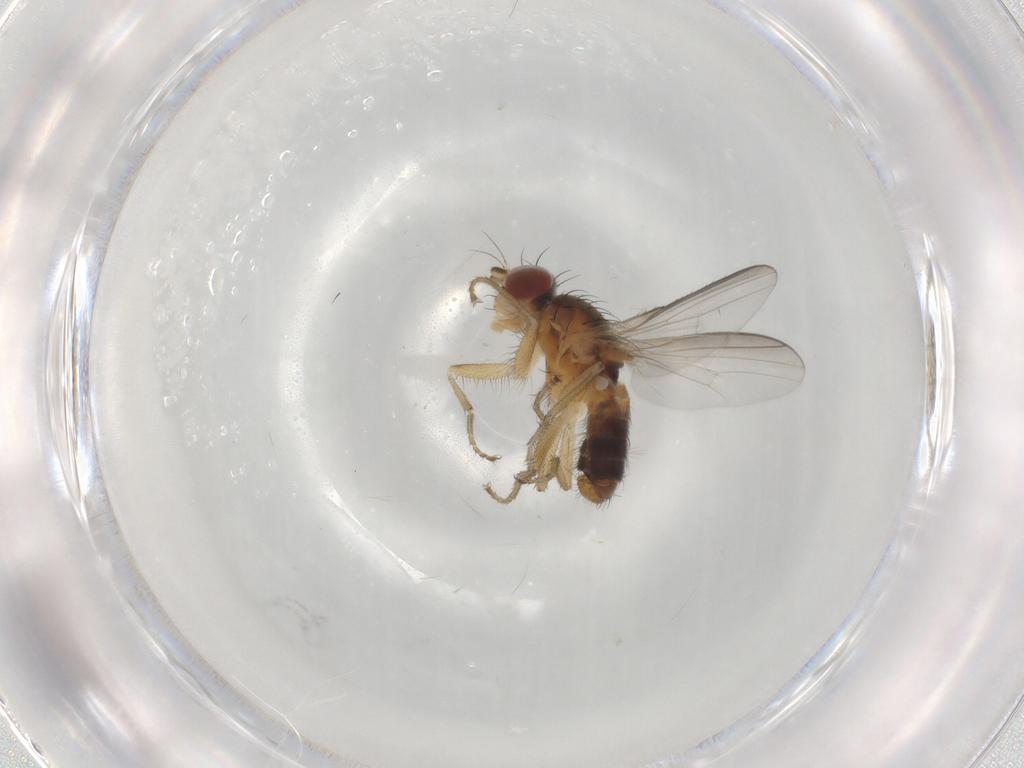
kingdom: Animalia
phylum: Arthropoda
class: Insecta
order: Diptera
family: Heleomyzidae
